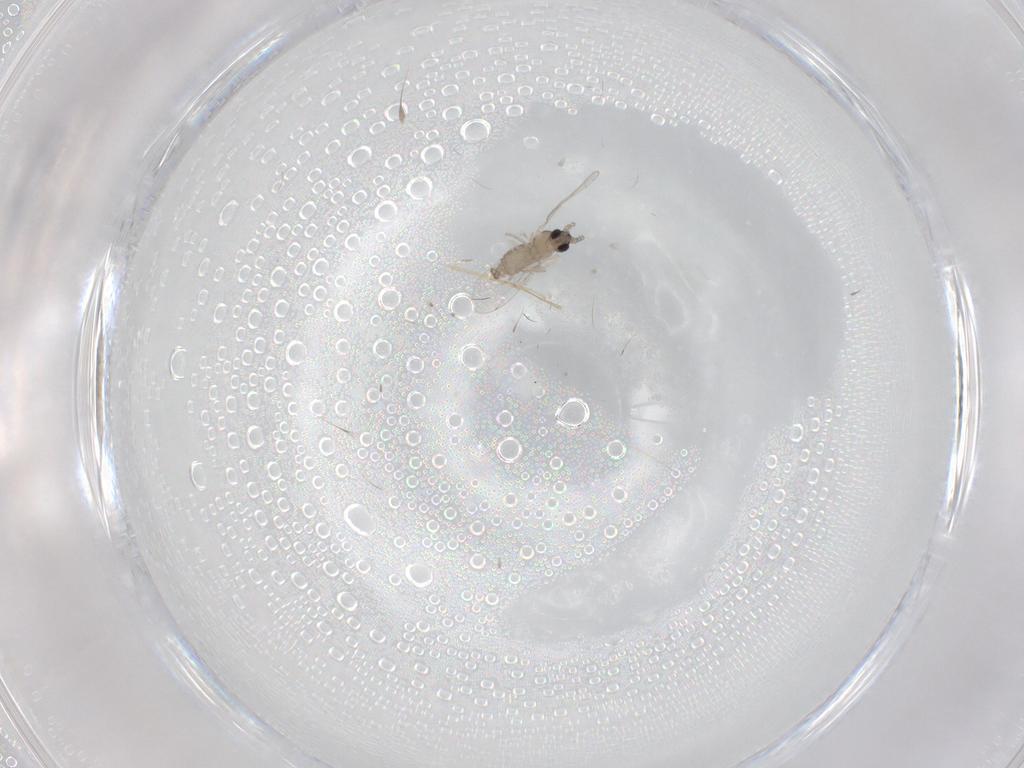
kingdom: Animalia
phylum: Arthropoda
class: Insecta
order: Diptera
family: Cecidomyiidae
